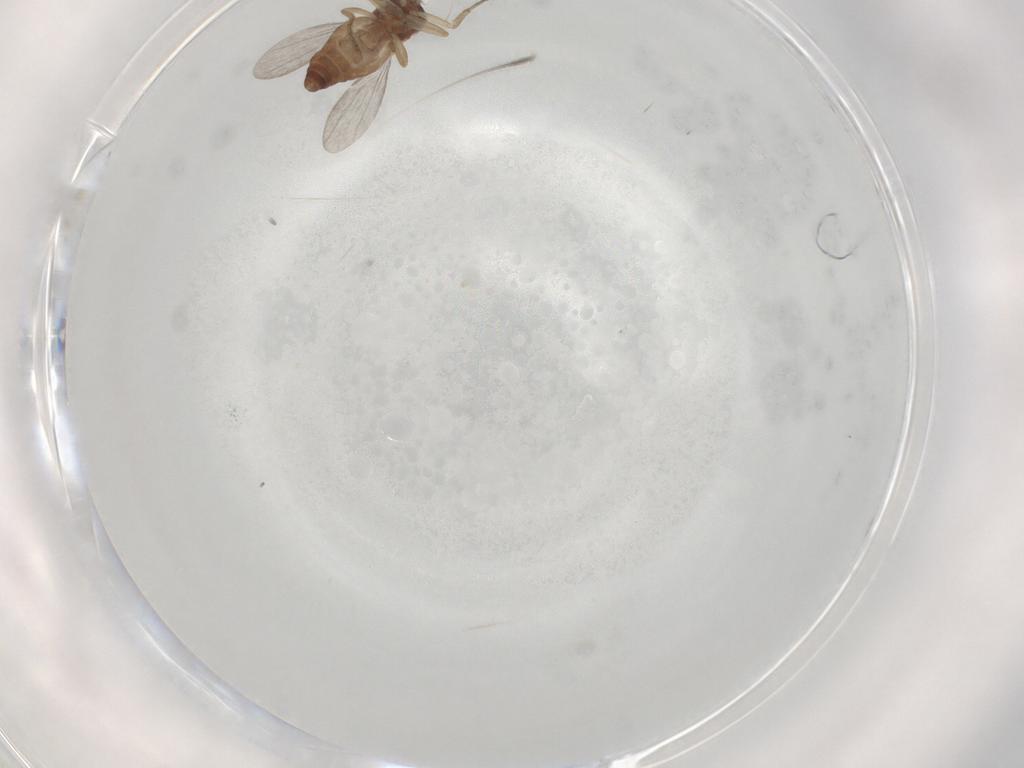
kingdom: Animalia
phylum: Arthropoda
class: Insecta
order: Diptera
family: Ceratopogonidae
